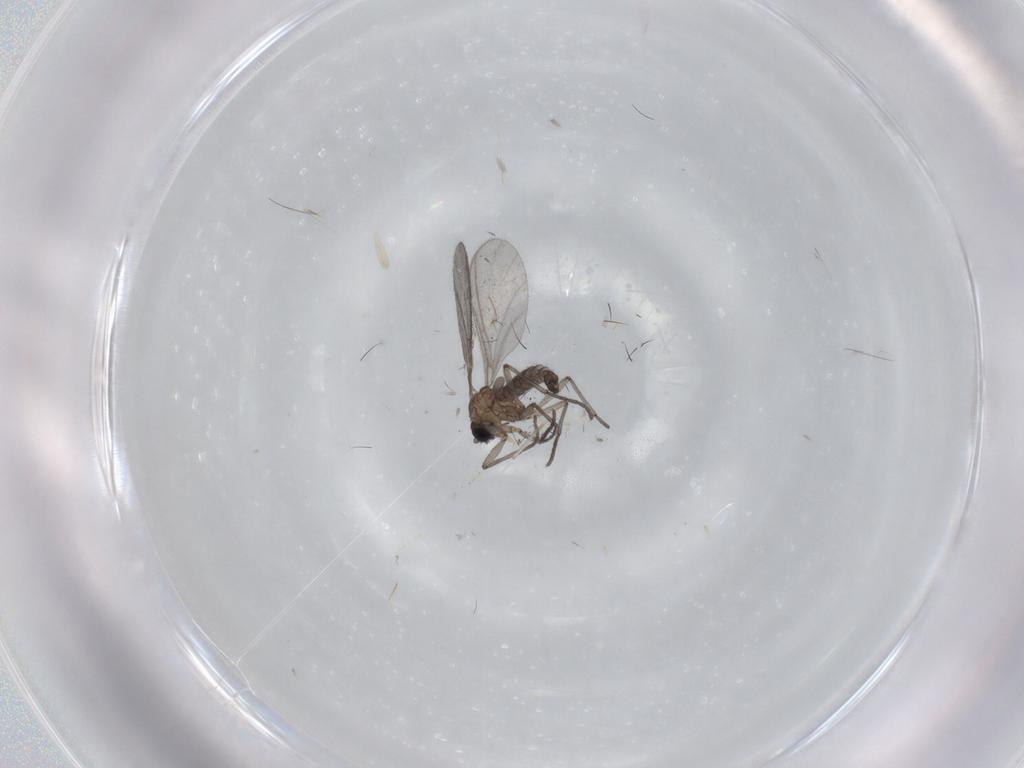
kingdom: Animalia
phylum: Arthropoda
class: Insecta
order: Diptera
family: Sciaridae
